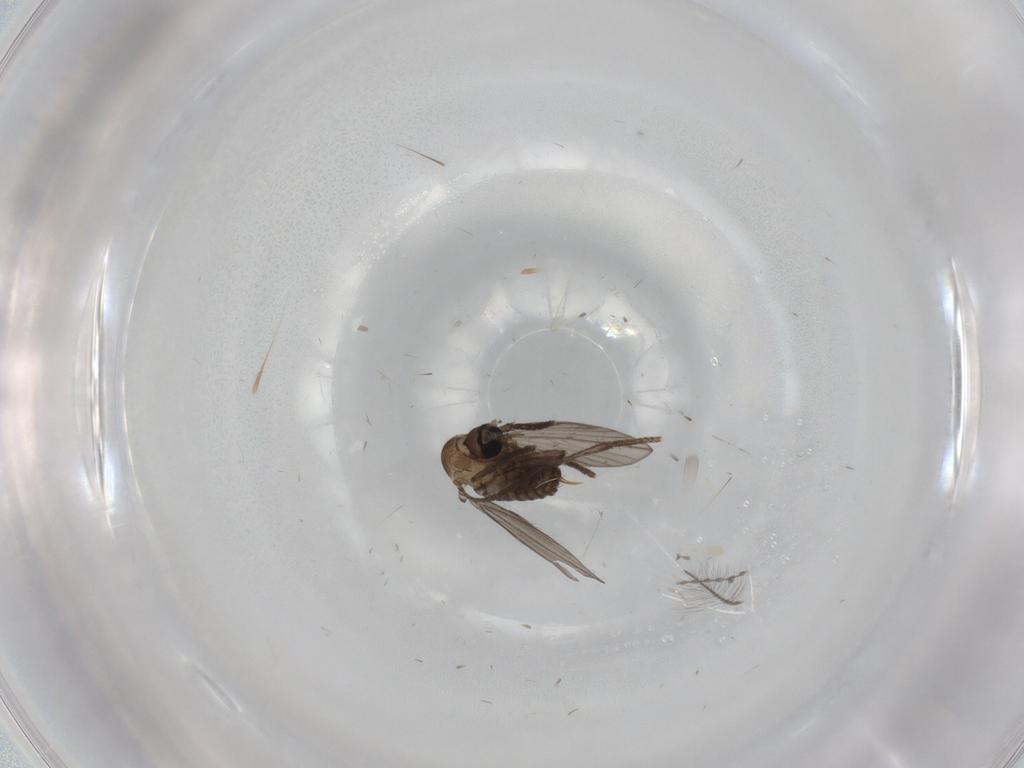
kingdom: Animalia
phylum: Arthropoda
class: Insecta
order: Diptera
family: Psychodidae
